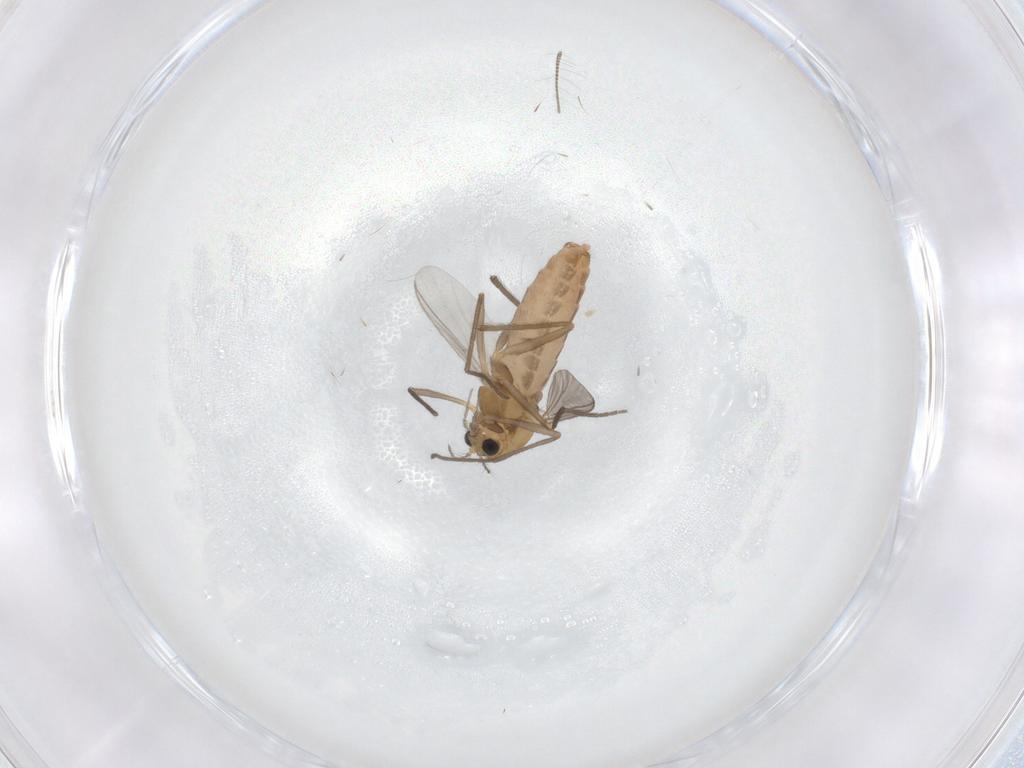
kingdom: Animalia
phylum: Arthropoda
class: Insecta
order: Diptera
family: Chironomidae
